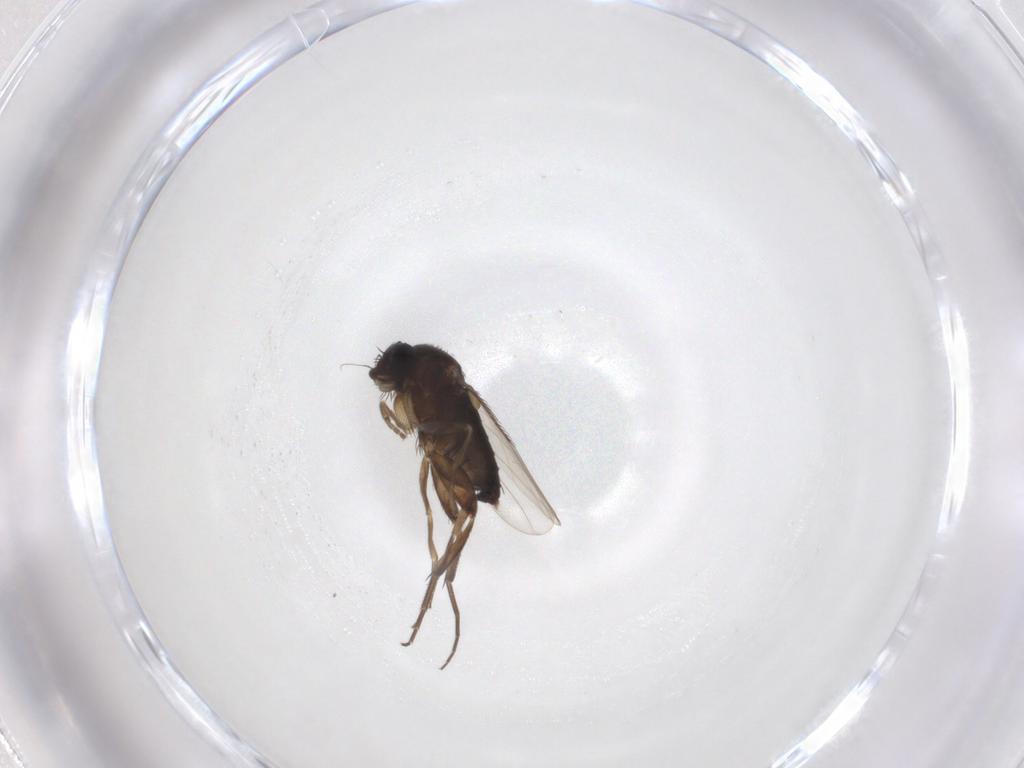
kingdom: Animalia
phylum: Arthropoda
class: Insecta
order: Diptera
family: Phoridae
